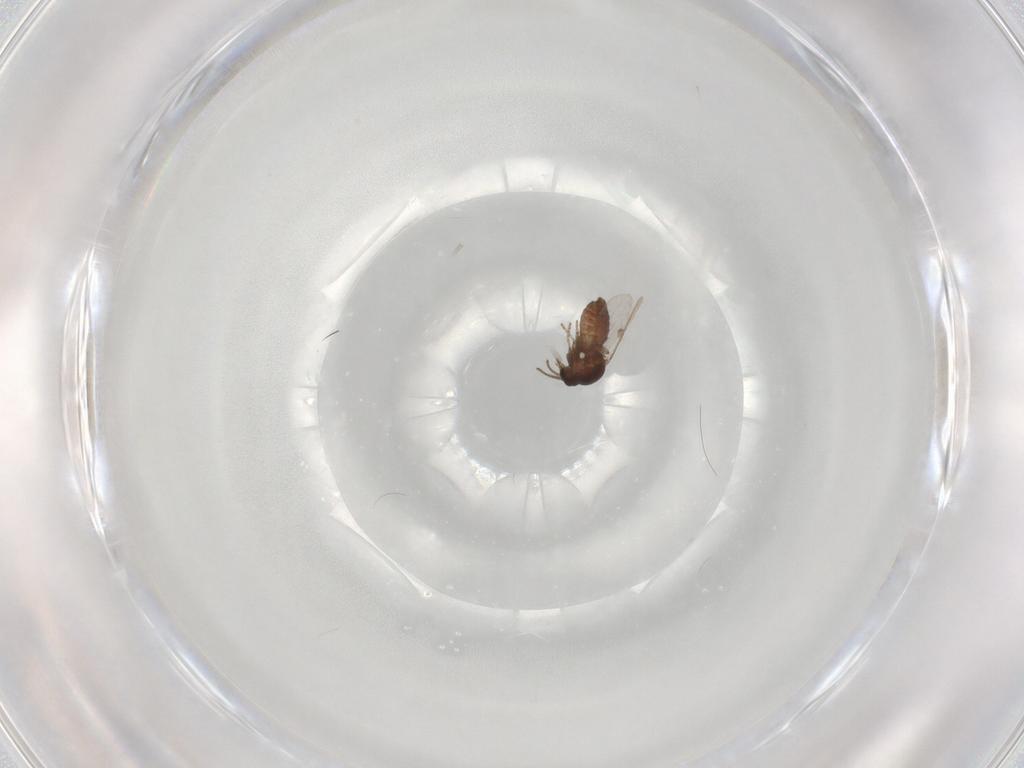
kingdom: Animalia
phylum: Arthropoda
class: Insecta
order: Diptera
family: Ceratopogonidae
